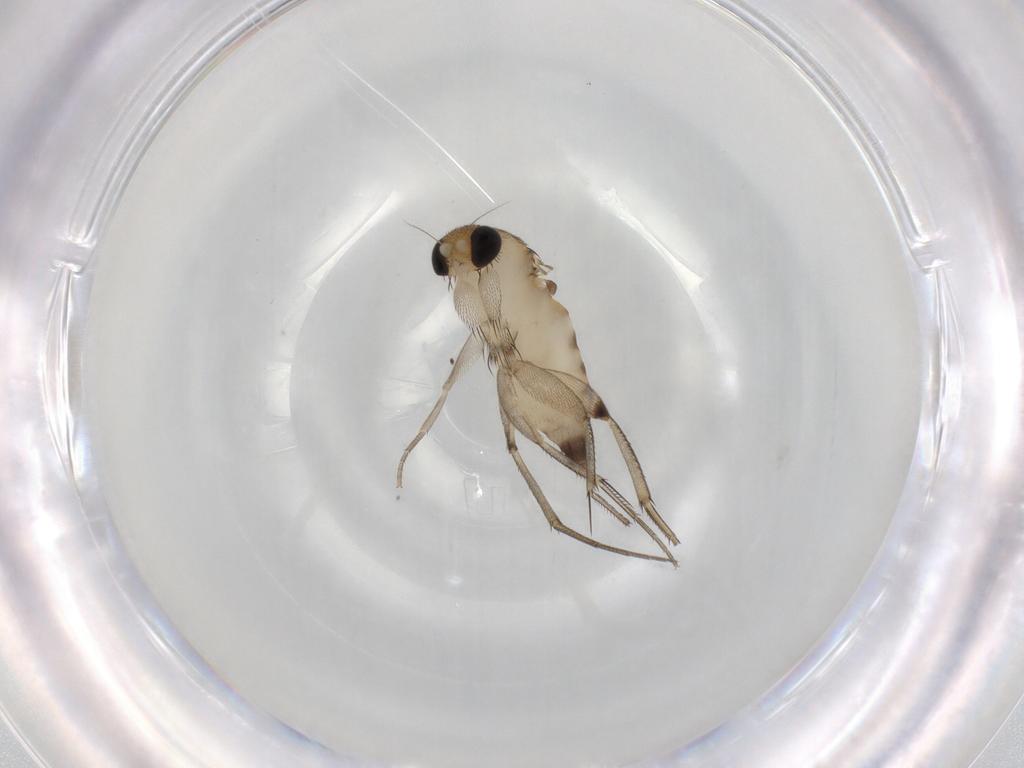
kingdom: Animalia
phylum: Arthropoda
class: Insecta
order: Diptera
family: Phoridae
